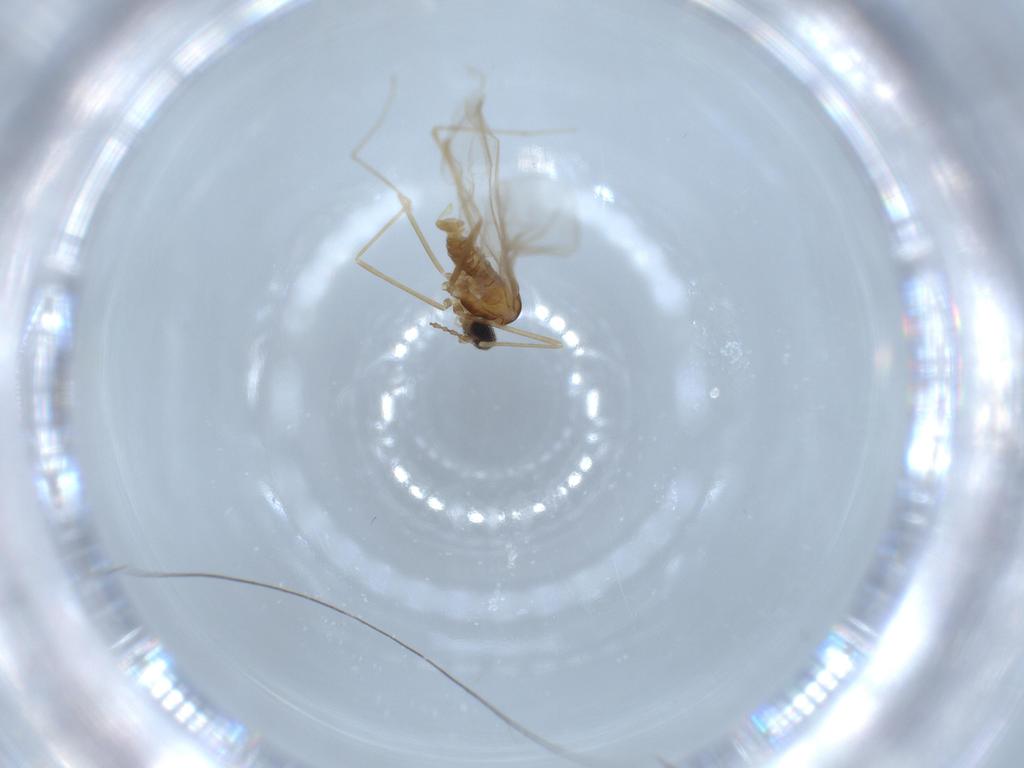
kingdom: Animalia
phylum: Arthropoda
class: Insecta
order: Diptera
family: Cecidomyiidae
